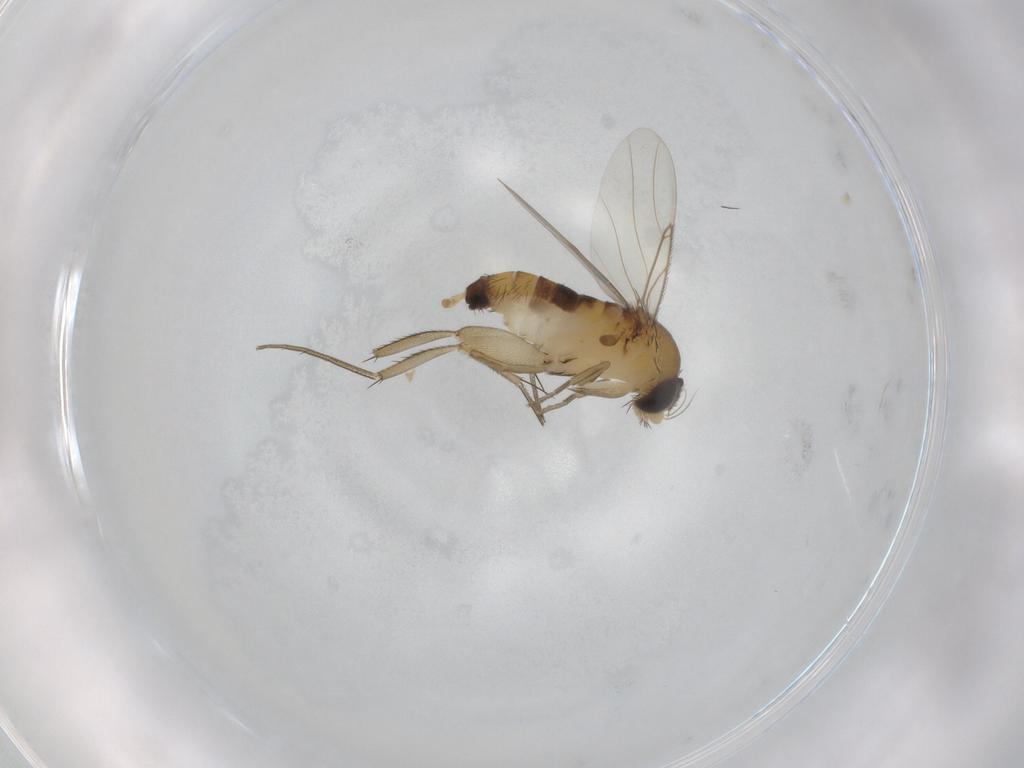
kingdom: Animalia
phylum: Arthropoda
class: Insecta
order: Diptera
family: Phoridae
